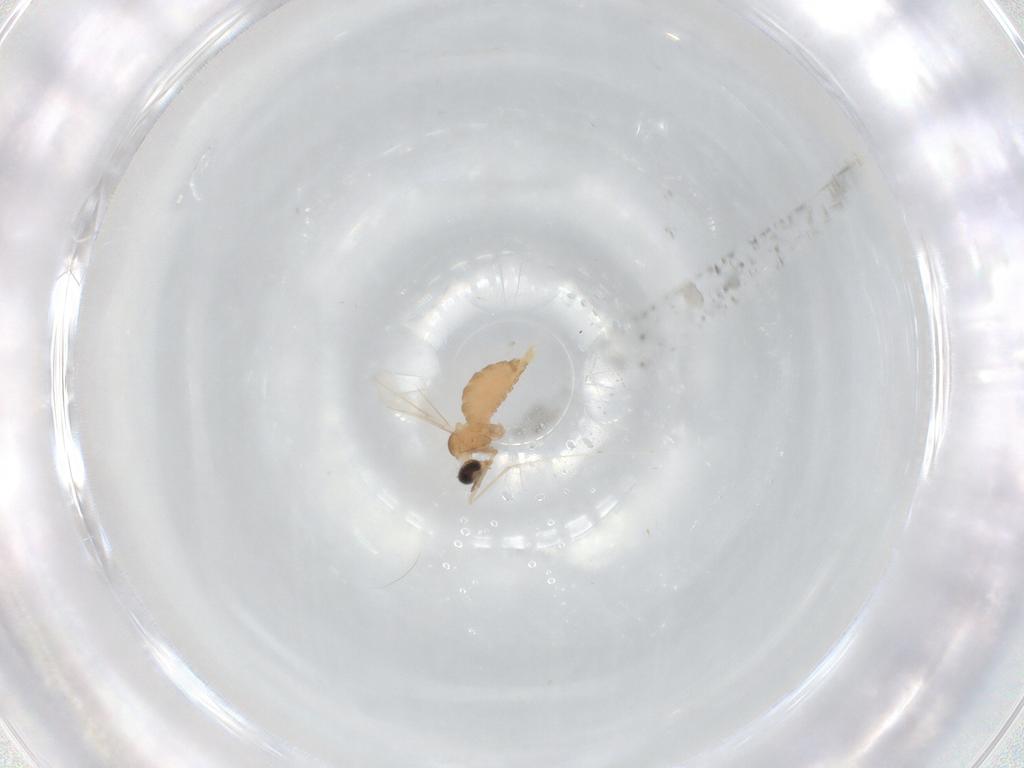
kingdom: Animalia
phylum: Arthropoda
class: Insecta
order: Diptera
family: Cecidomyiidae
